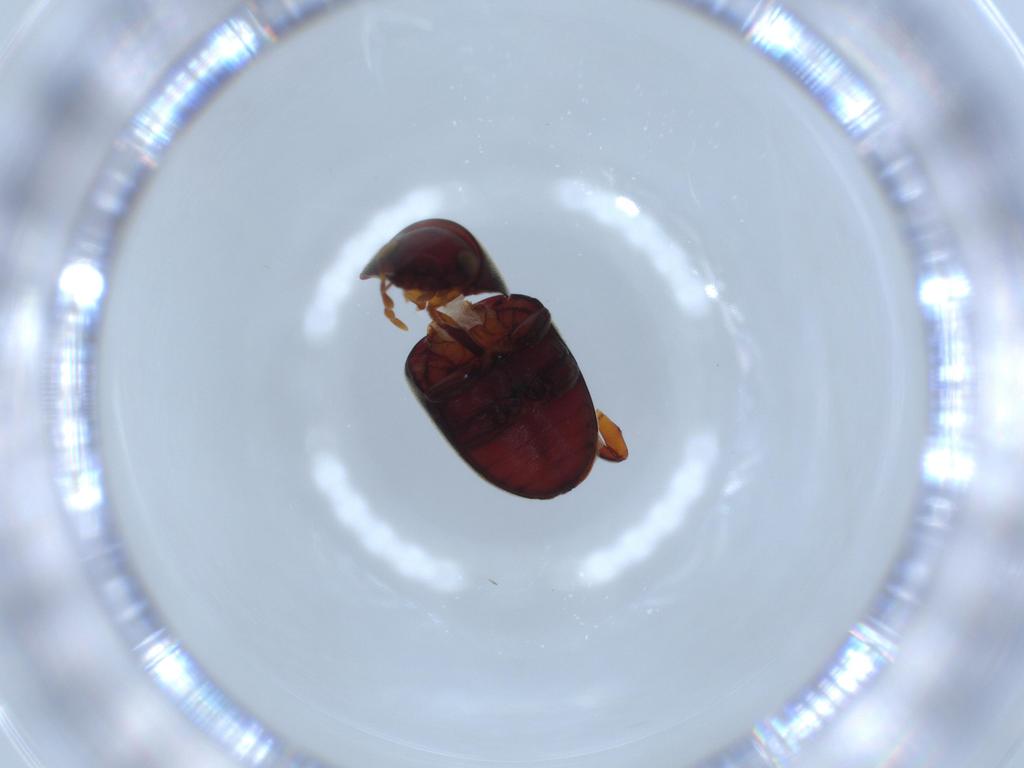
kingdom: Animalia
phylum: Arthropoda
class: Insecta
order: Coleoptera
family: Ptinidae
